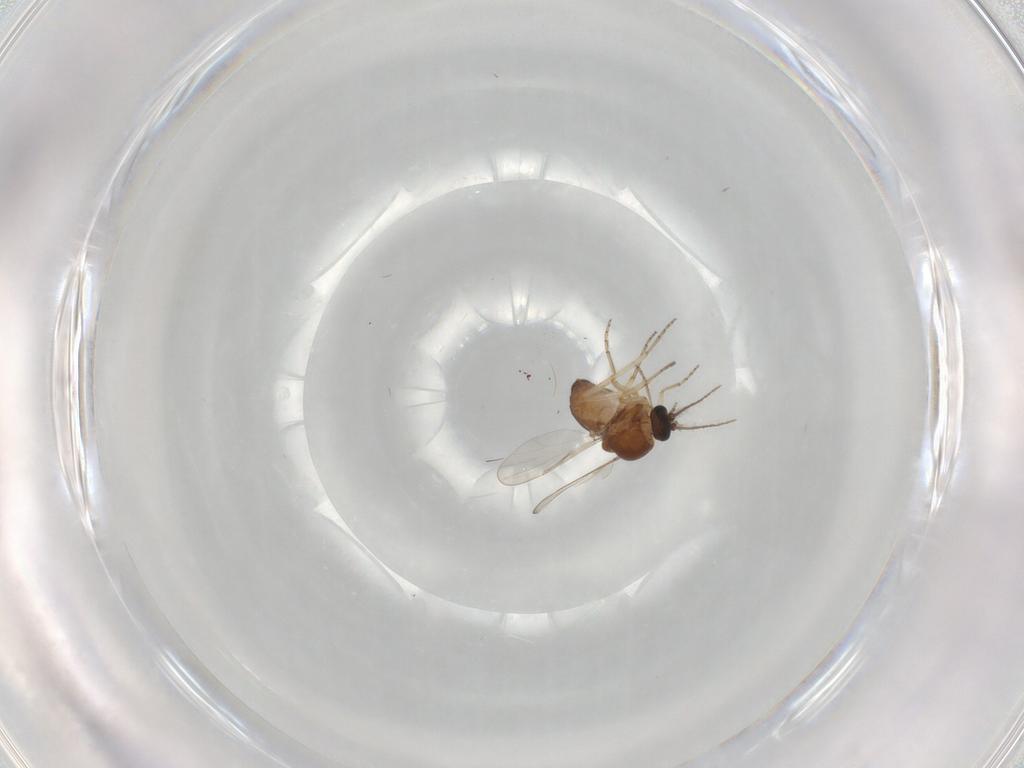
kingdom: Animalia
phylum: Arthropoda
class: Insecta
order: Diptera
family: Ceratopogonidae
